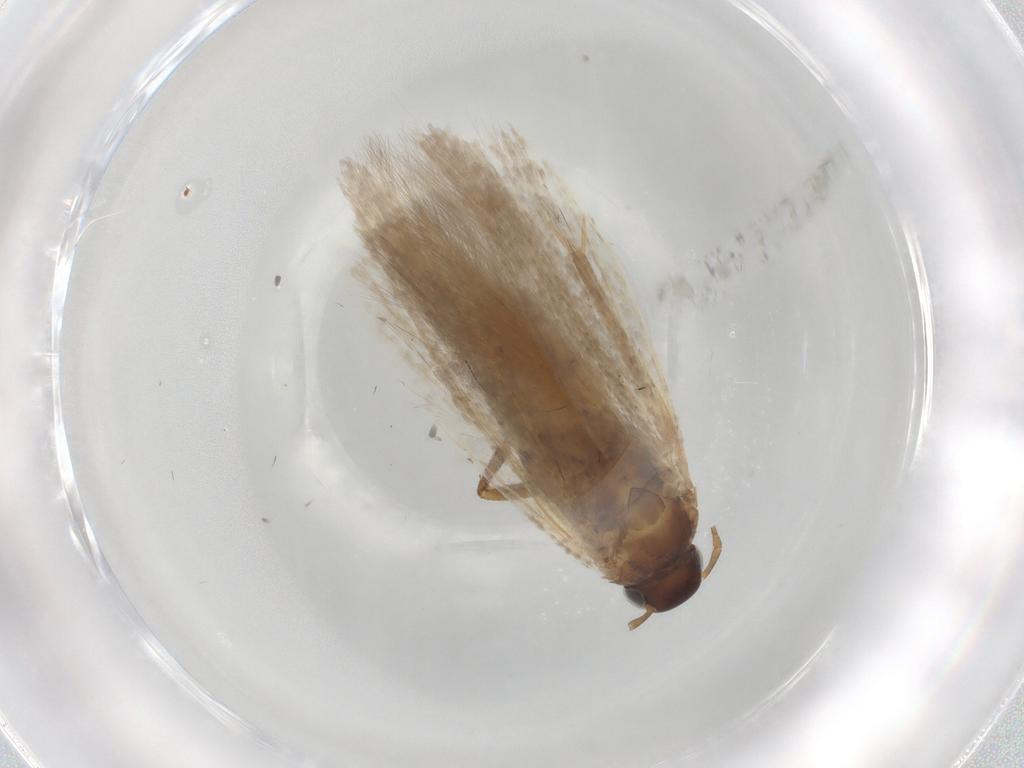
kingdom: Animalia
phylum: Arthropoda
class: Insecta
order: Lepidoptera
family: Gelechiidae
